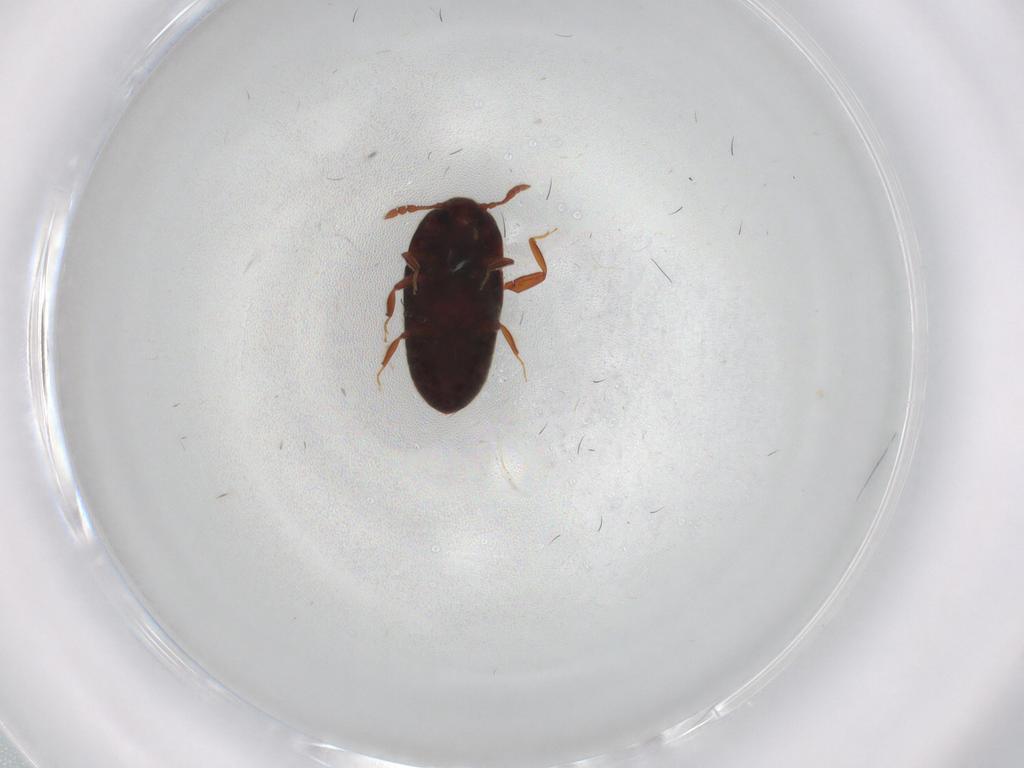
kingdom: Animalia
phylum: Arthropoda
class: Insecta
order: Coleoptera
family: Throscidae
